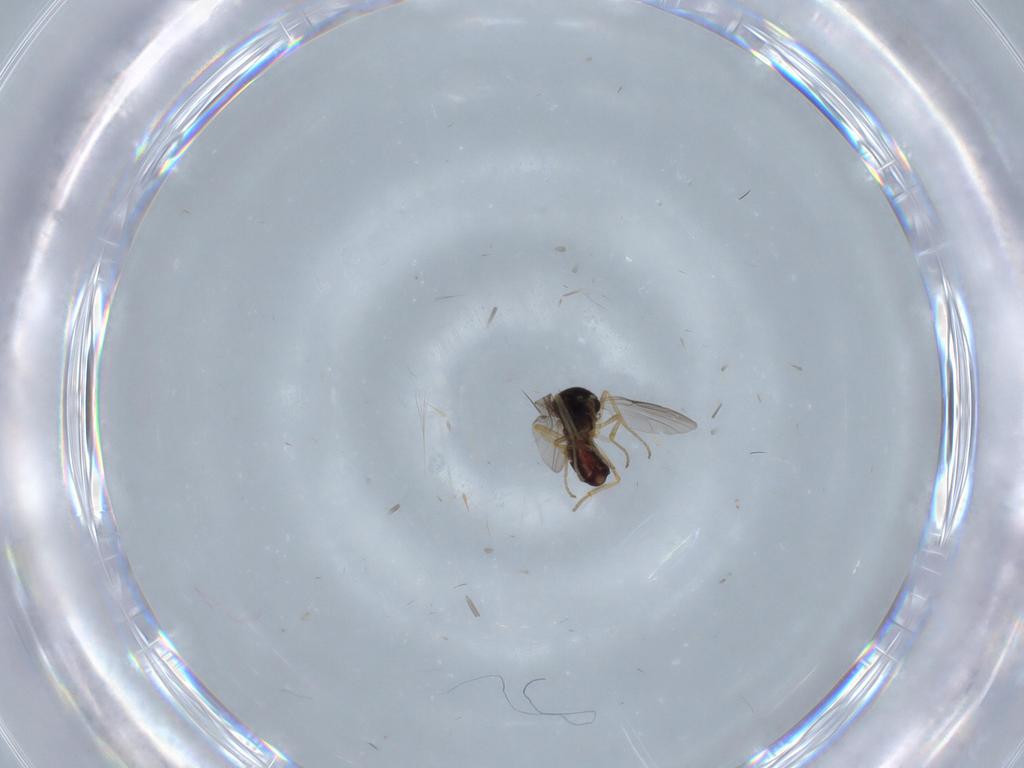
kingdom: Animalia
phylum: Arthropoda
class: Insecta
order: Diptera
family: Ceratopogonidae
